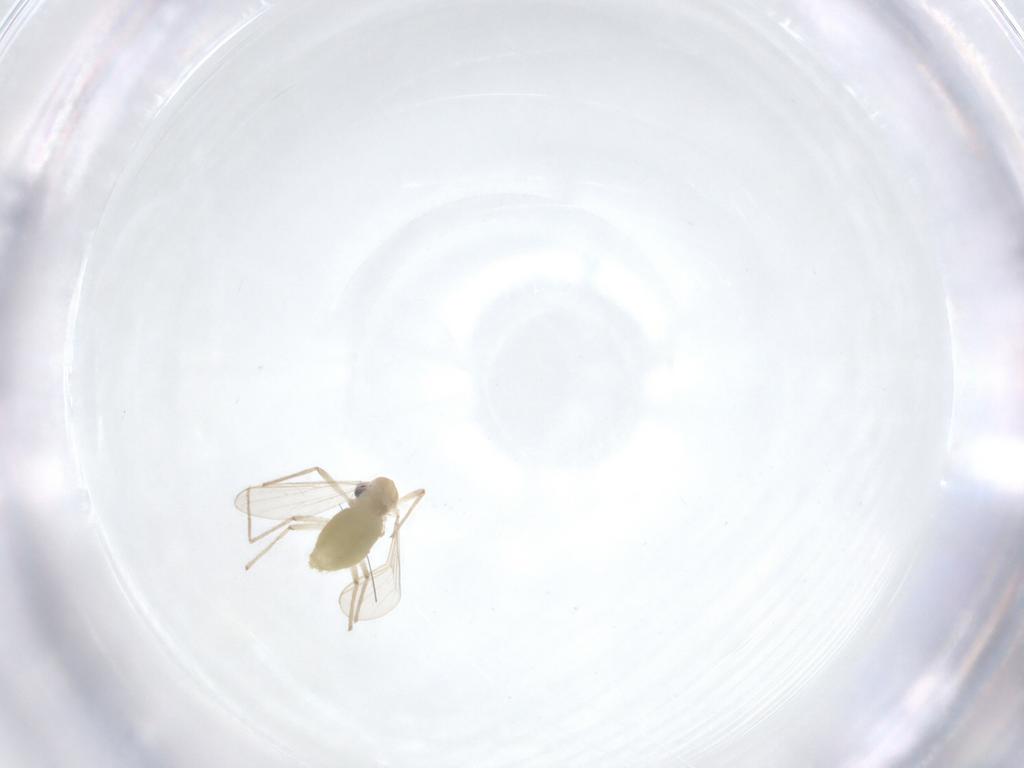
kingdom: Animalia
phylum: Arthropoda
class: Insecta
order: Diptera
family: Chironomidae
